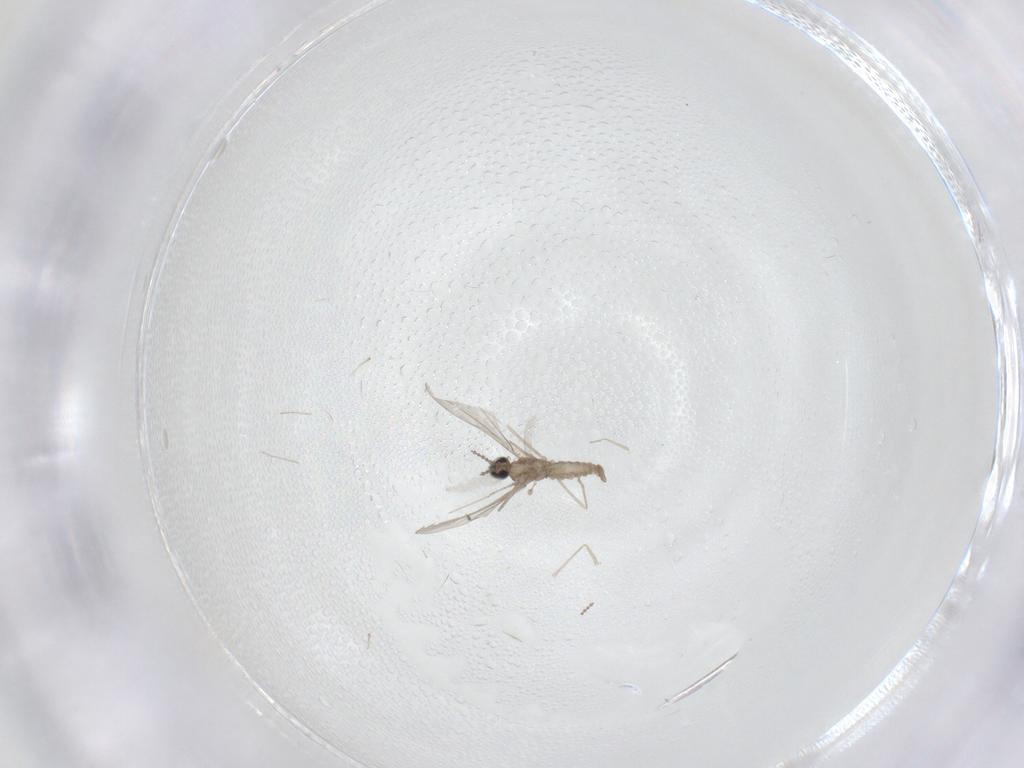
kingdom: Animalia
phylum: Arthropoda
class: Insecta
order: Diptera
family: Cecidomyiidae
